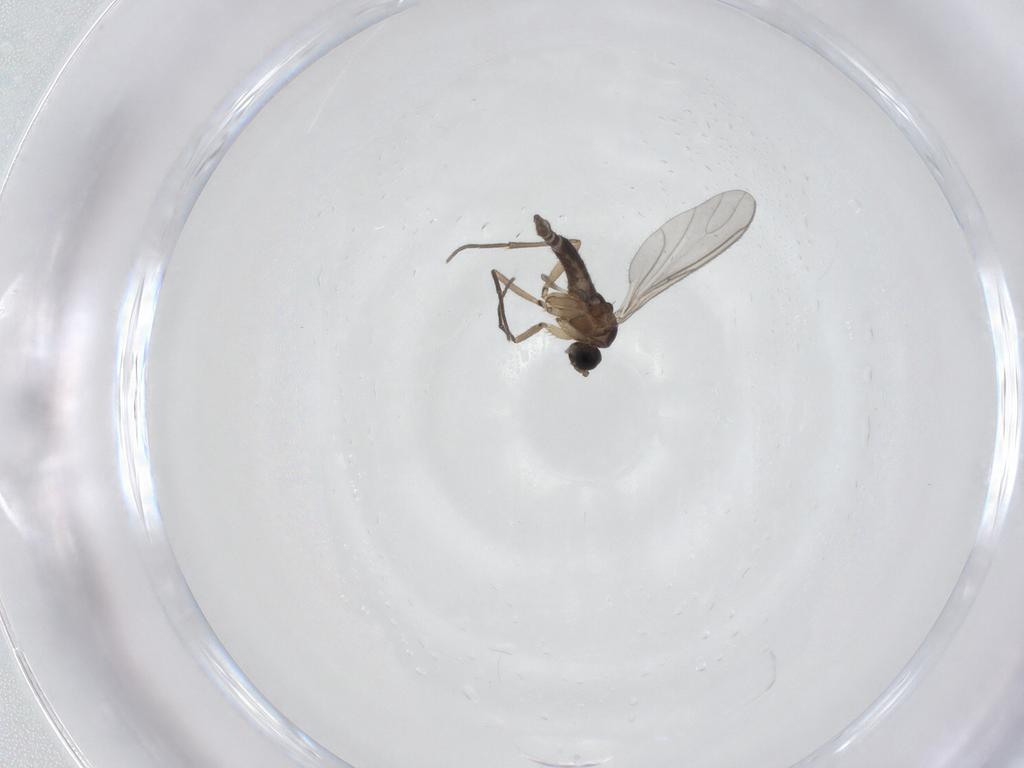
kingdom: Animalia
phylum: Arthropoda
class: Insecta
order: Diptera
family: Sciaridae
